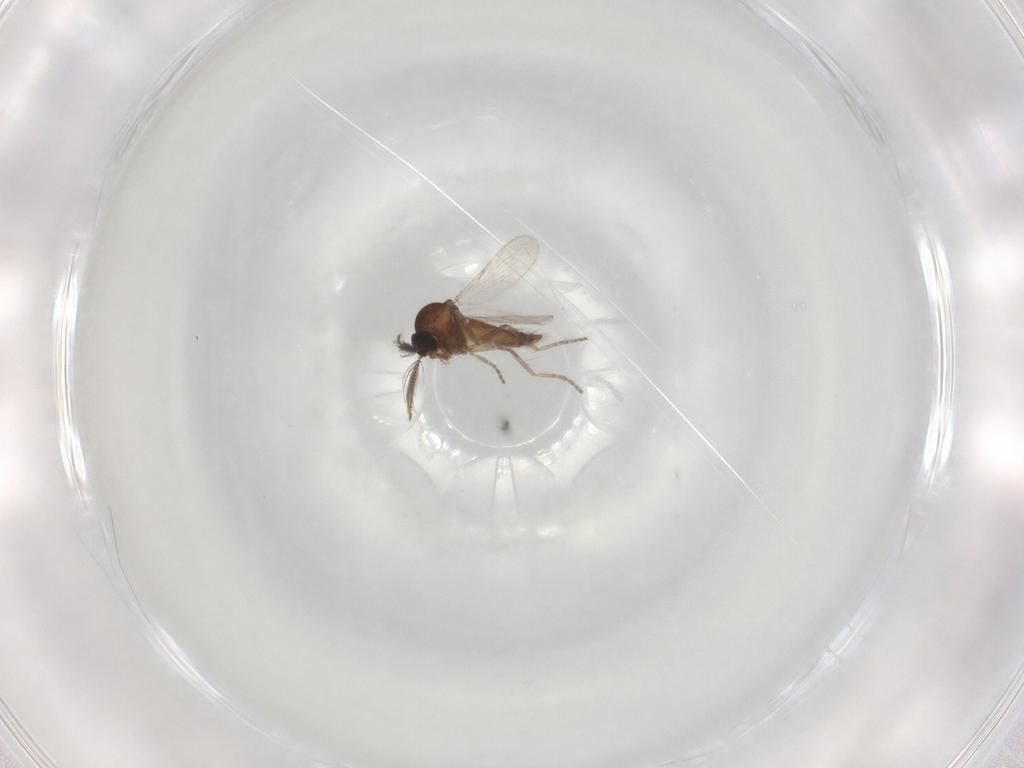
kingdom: Animalia
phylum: Arthropoda
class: Insecta
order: Diptera
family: Ceratopogonidae
